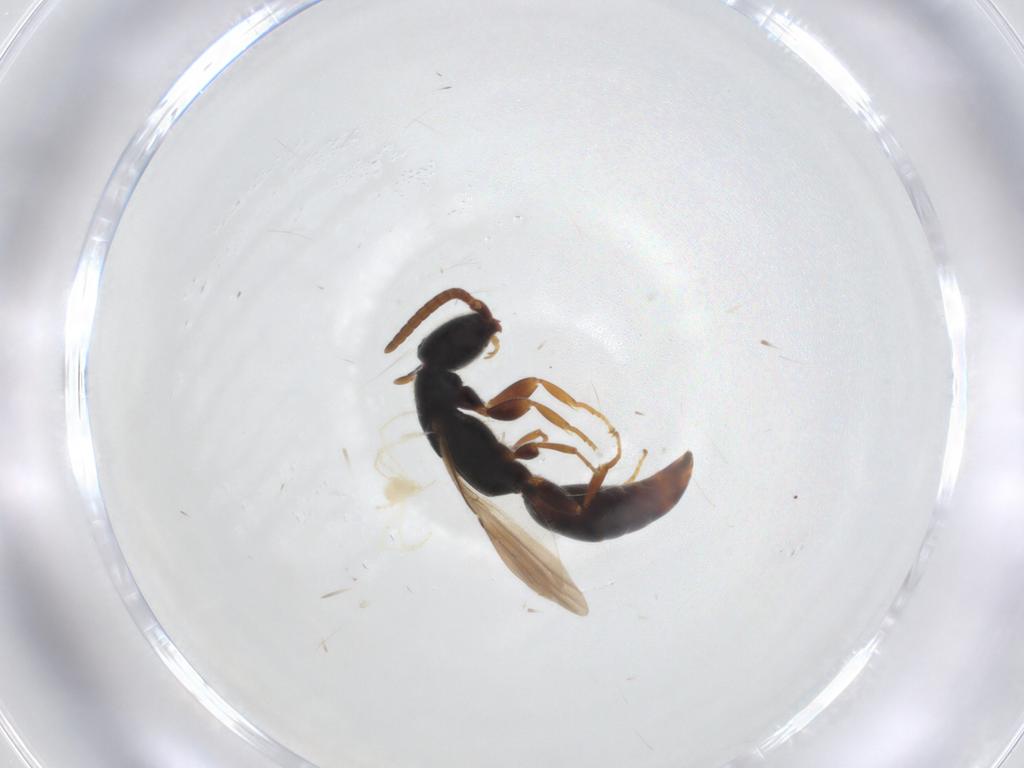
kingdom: Animalia
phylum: Arthropoda
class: Insecta
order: Hymenoptera
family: Bethylidae
